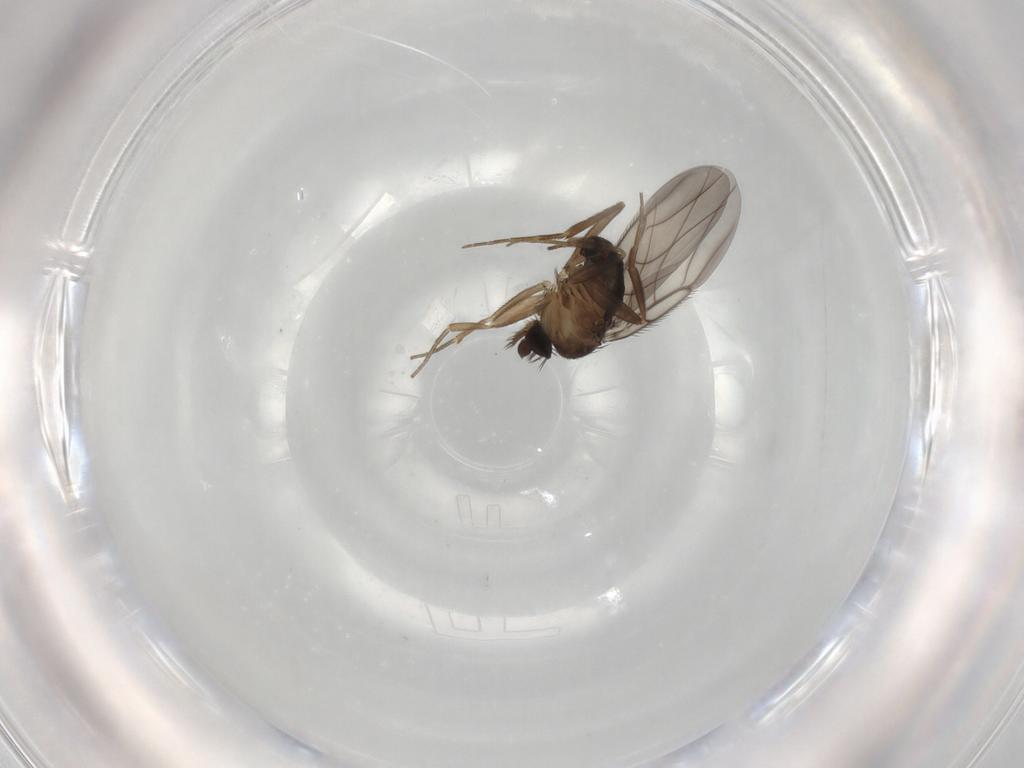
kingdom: Animalia
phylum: Arthropoda
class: Insecta
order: Diptera
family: Phoridae
